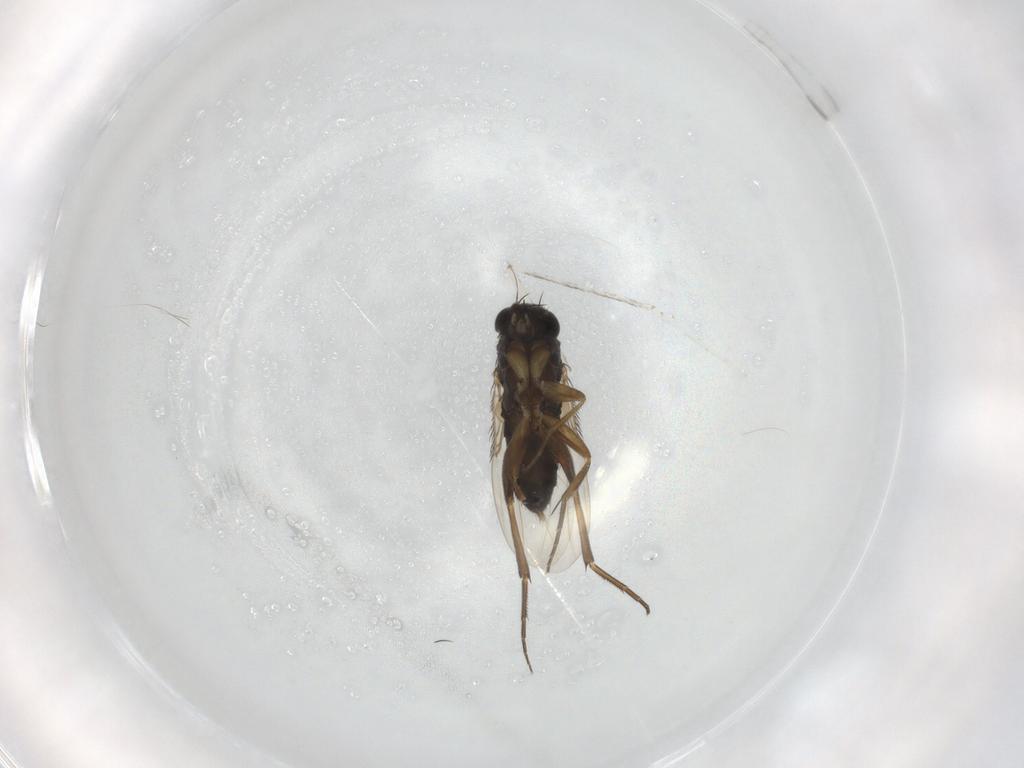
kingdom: Animalia
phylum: Arthropoda
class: Insecta
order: Diptera
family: Cecidomyiidae
